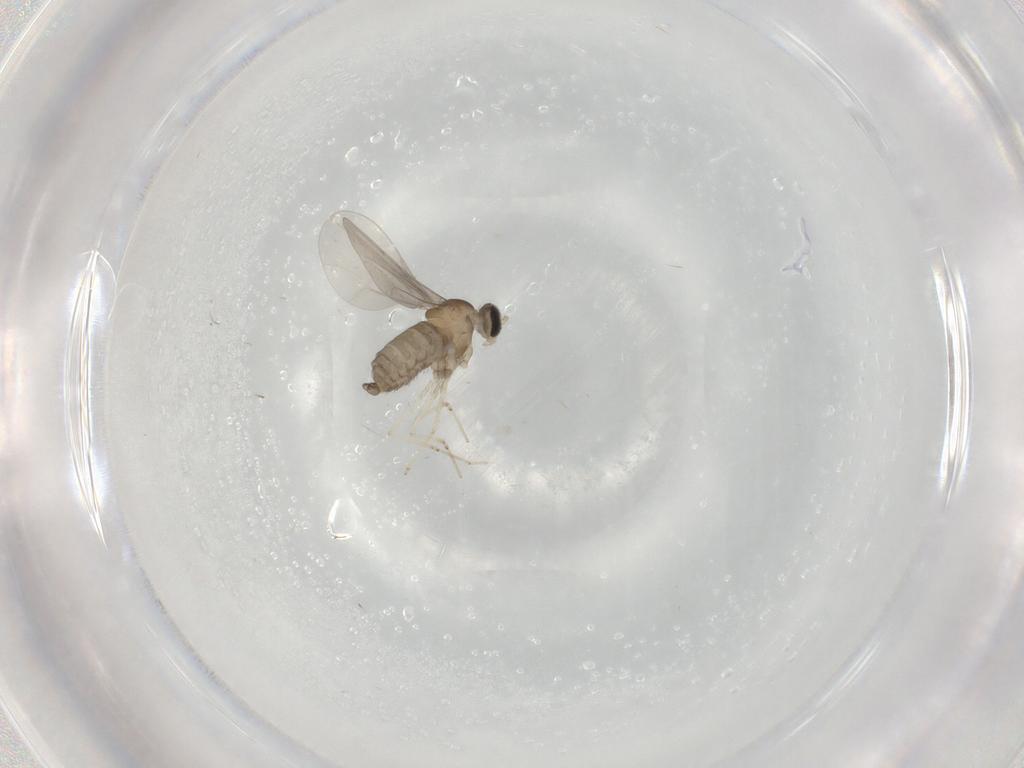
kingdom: Animalia
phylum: Arthropoda
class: Insecta
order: Diptera
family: Cecidomyiidae
